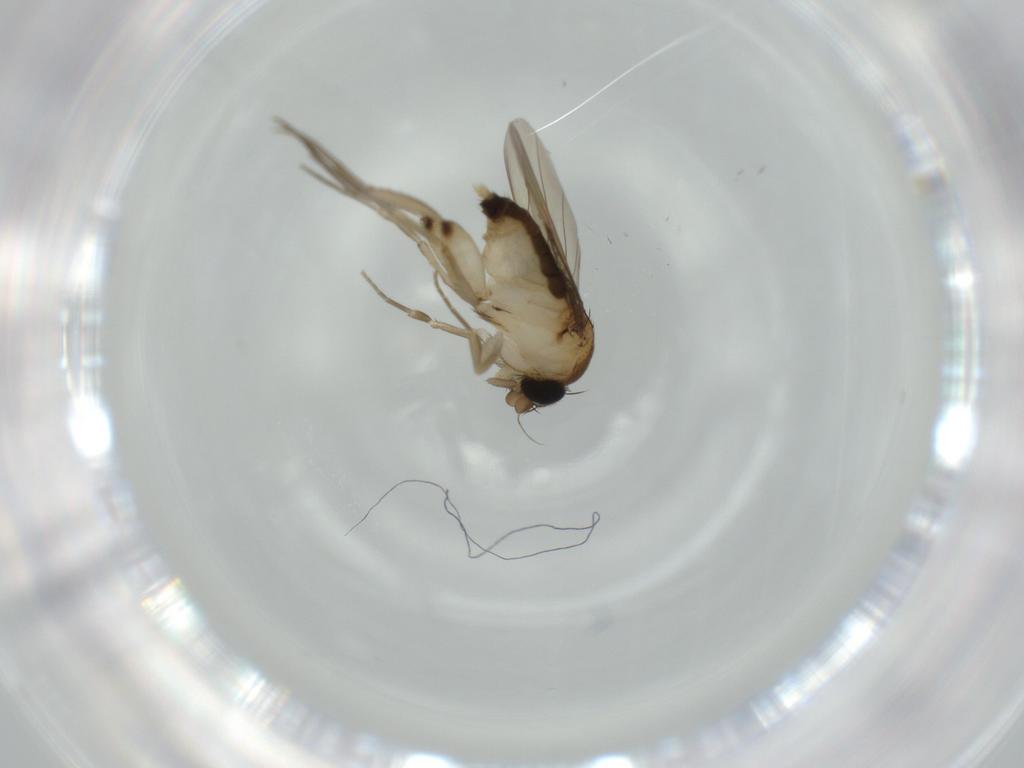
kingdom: Animalia
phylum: Arthropoda
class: Insecta
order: Diptera
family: Phoridae
